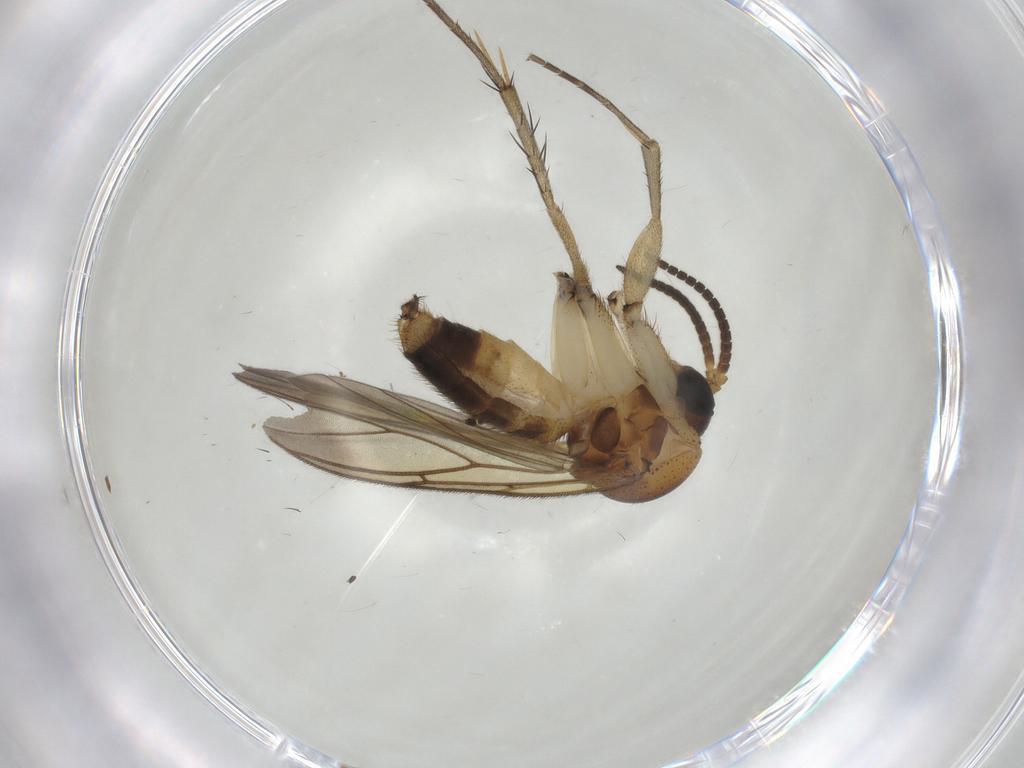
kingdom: Animalia
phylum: Arthropoda
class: Insecta
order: Diptera
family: Mycetophilidae
